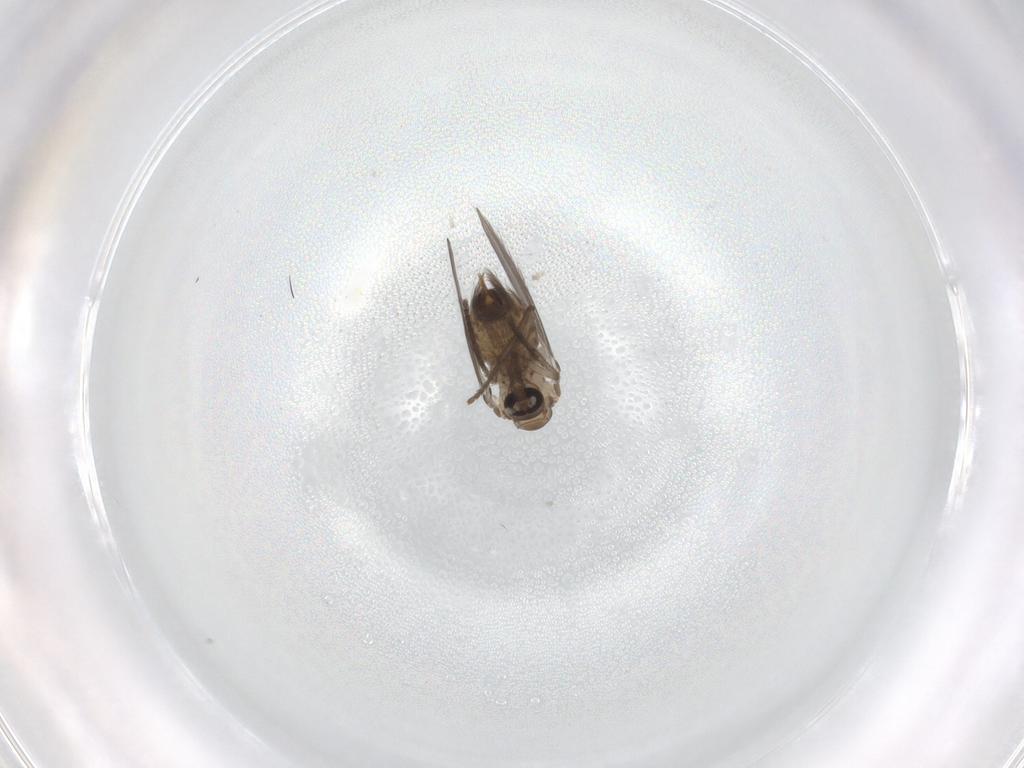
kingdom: Animalia
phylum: Arthropoda
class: Insecta
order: Diptera
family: Psychodidae
